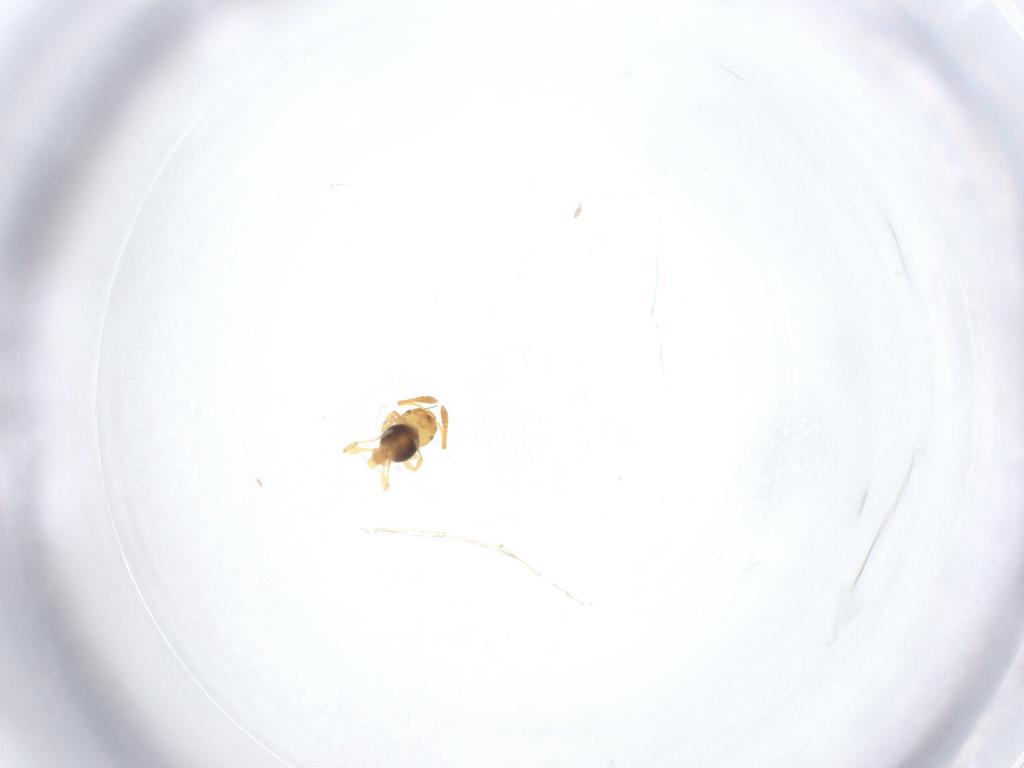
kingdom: Animalia
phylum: Arthropoda
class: Insecta
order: Hymenoptera
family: Formicidae
